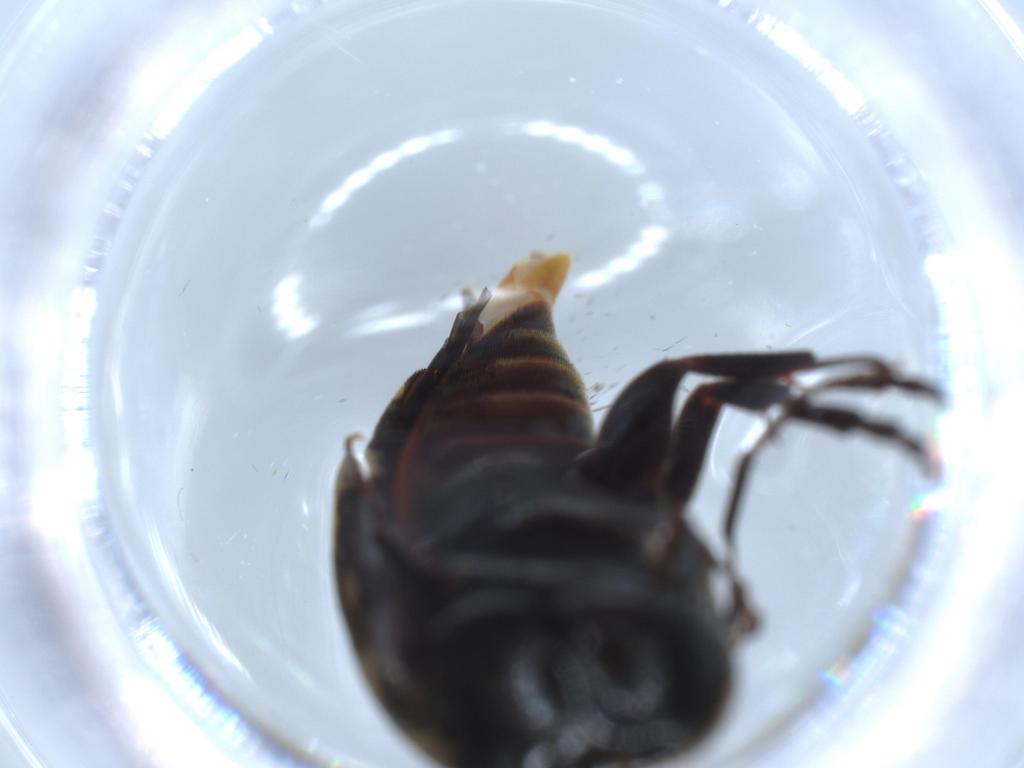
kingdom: Animalia
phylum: Arthropoda
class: Insecta
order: Coleoptera
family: Mordellidae
